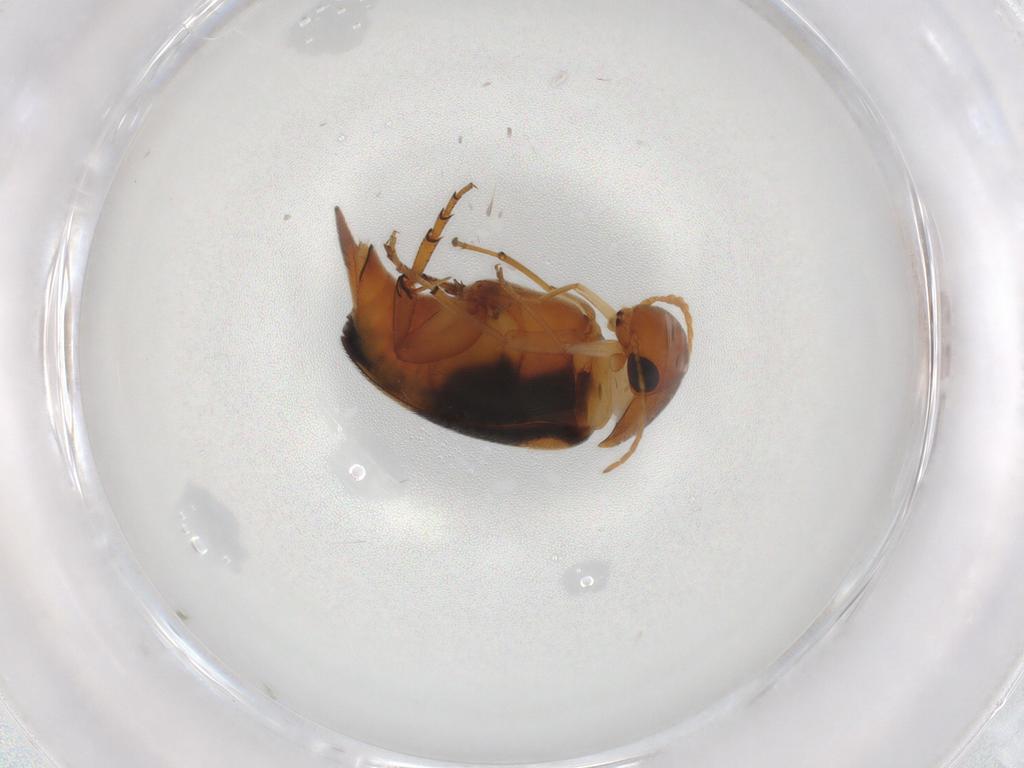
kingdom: Animalia
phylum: Arthropoda
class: Insecta
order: Coleoptera
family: Mordellidae
